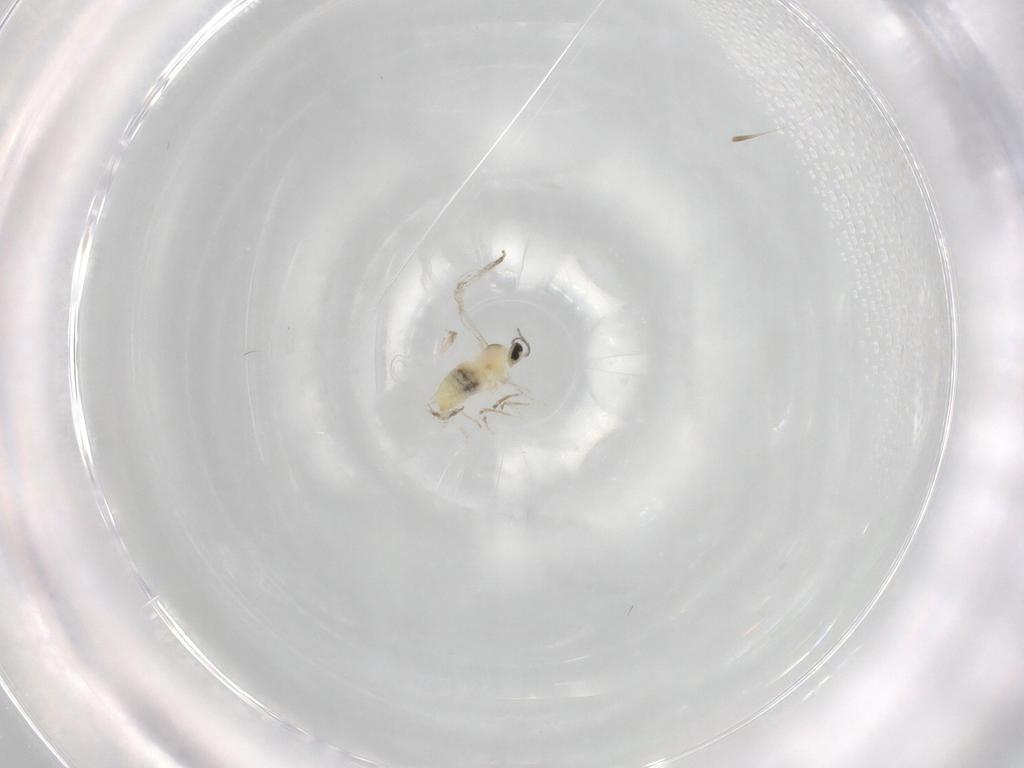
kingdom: Animalia
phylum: Arthropoda
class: Insecta
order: Diptera
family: Cecidomyiidae
